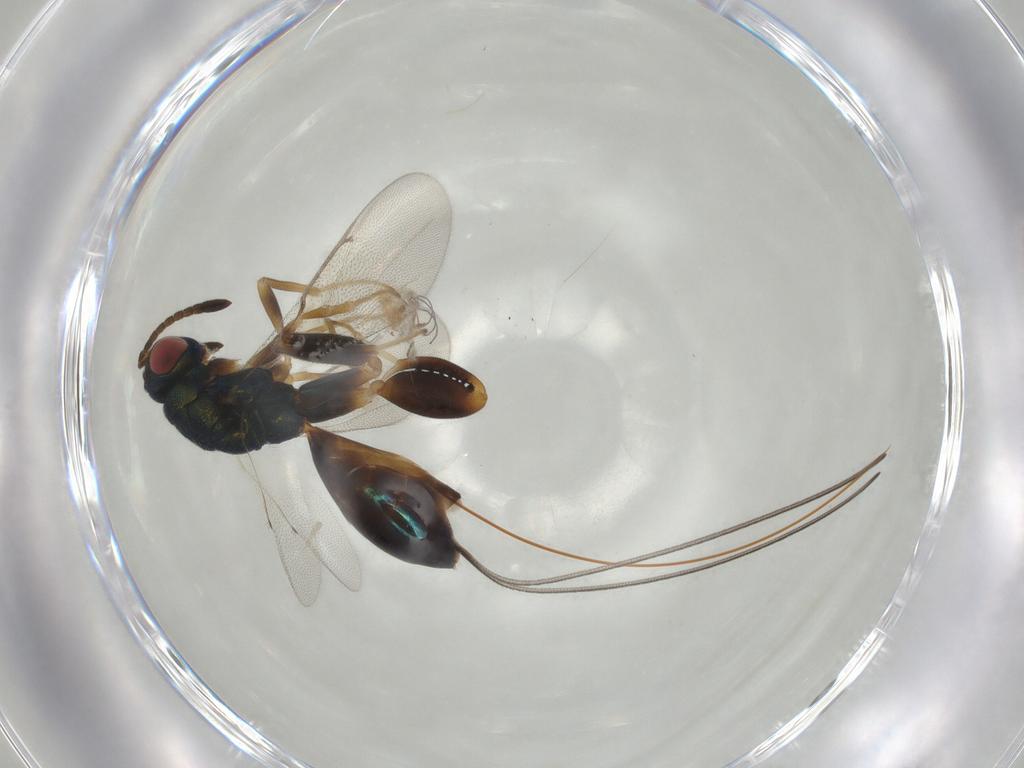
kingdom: Animalia
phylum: Arthropoda
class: Insecta
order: Hymenoptera
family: Torymidae
